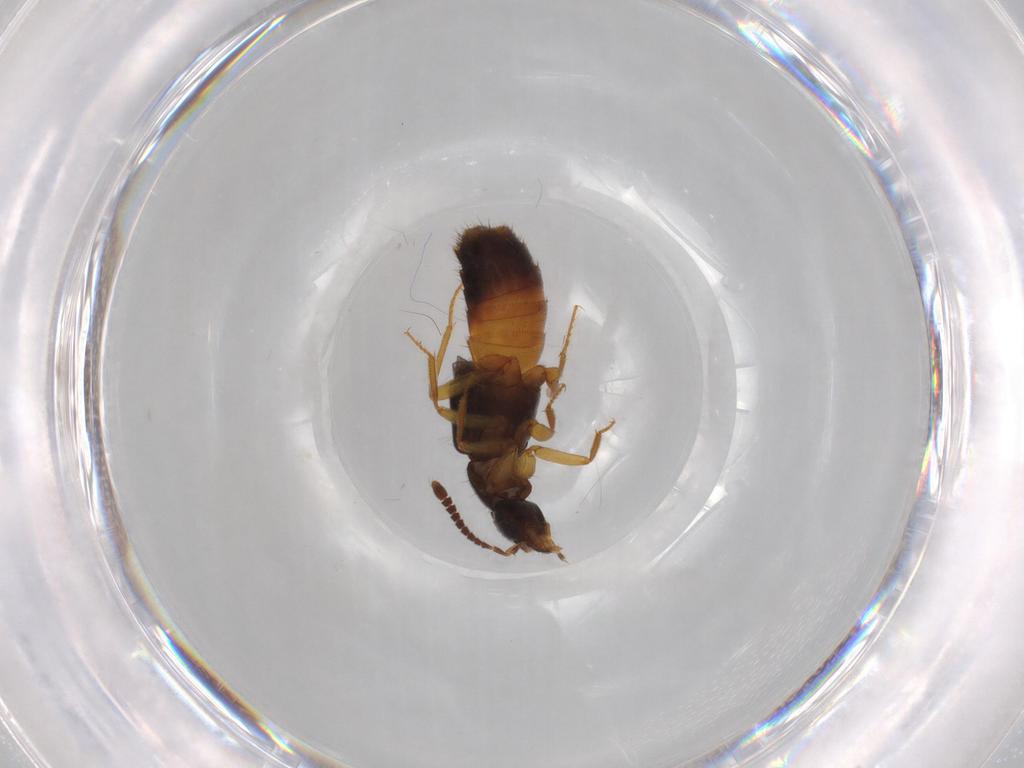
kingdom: Animalia
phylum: Arthropoda
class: Insecta
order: Coleoptera
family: Staphylinidae
